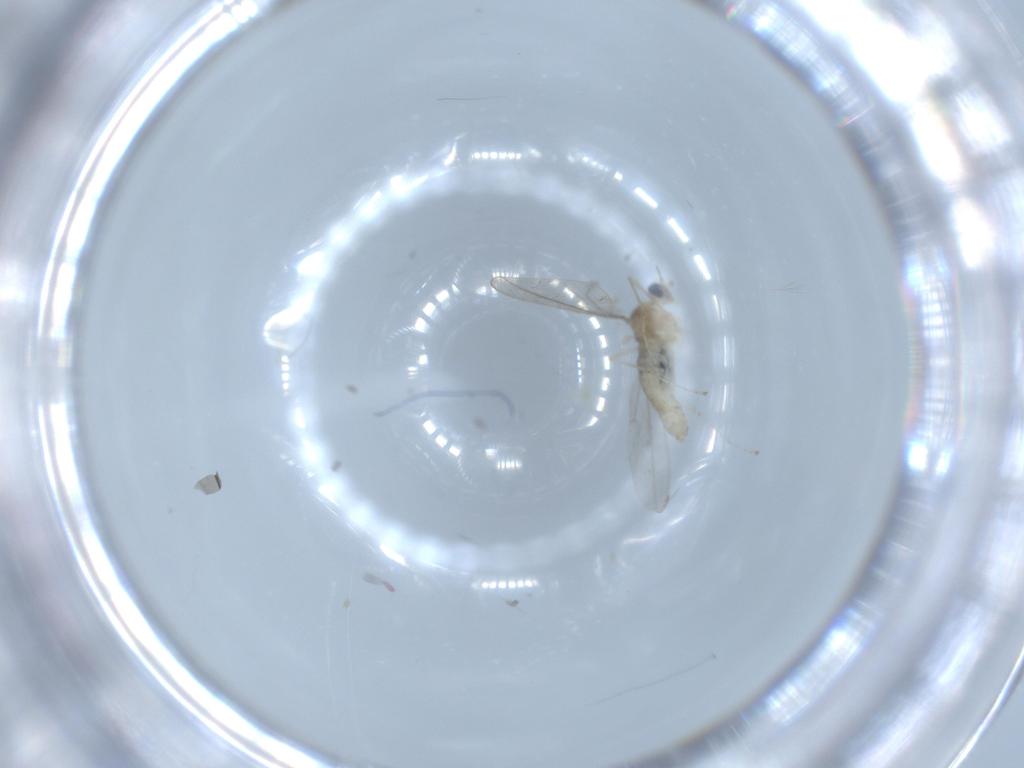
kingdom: Animalia
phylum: Arthropoda
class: Insecta
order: Diptera
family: Cecidomyiidae
